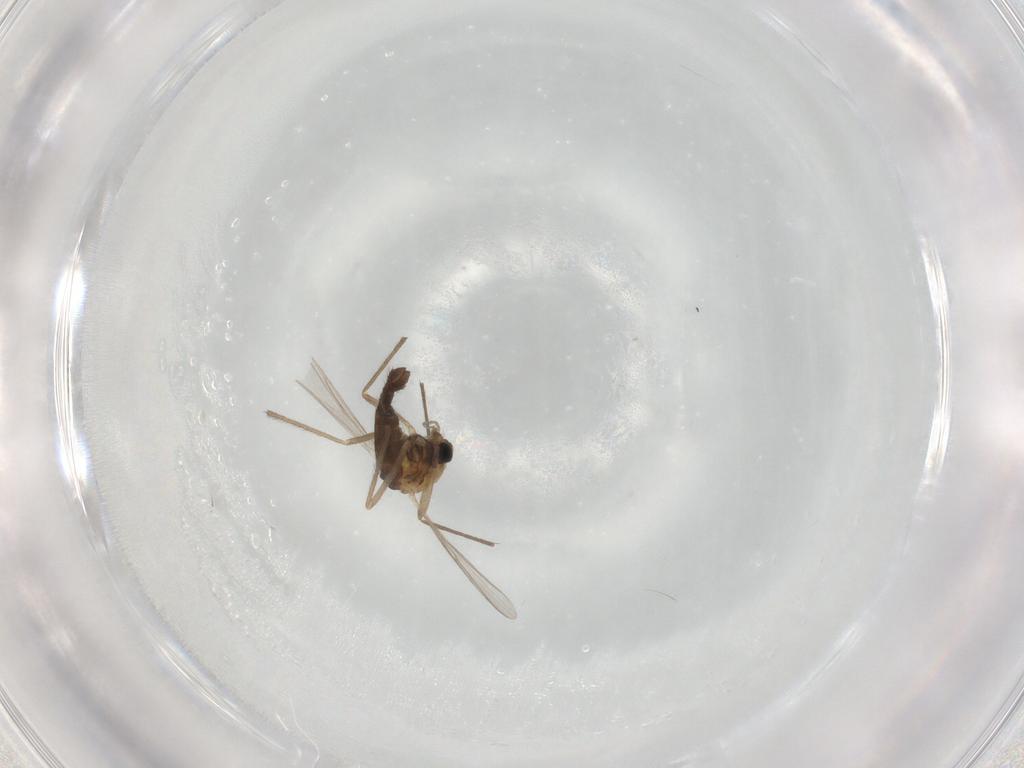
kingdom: Animalia
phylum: Arthropoda
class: Insecta
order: Diptera
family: Chironomidae
